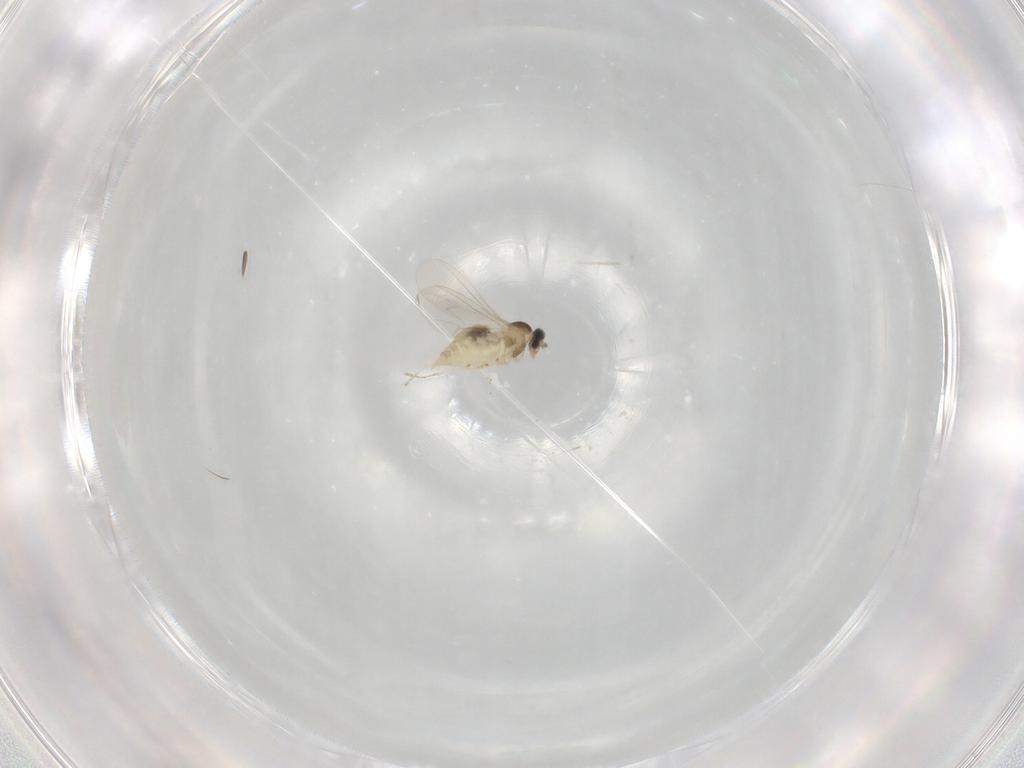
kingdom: Animalia
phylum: Arthropoda
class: Insecta
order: Diptera
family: Cecidomyiidae
